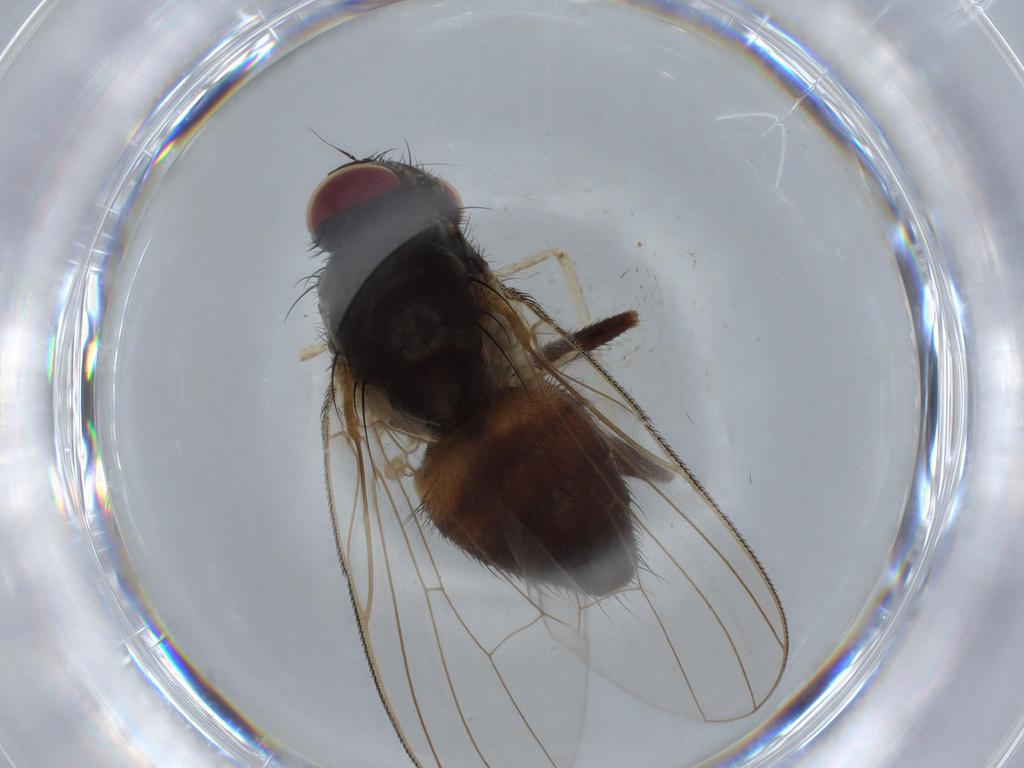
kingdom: Animalia
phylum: Arthropoda
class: Insecta
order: Diptera
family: Culicidae
